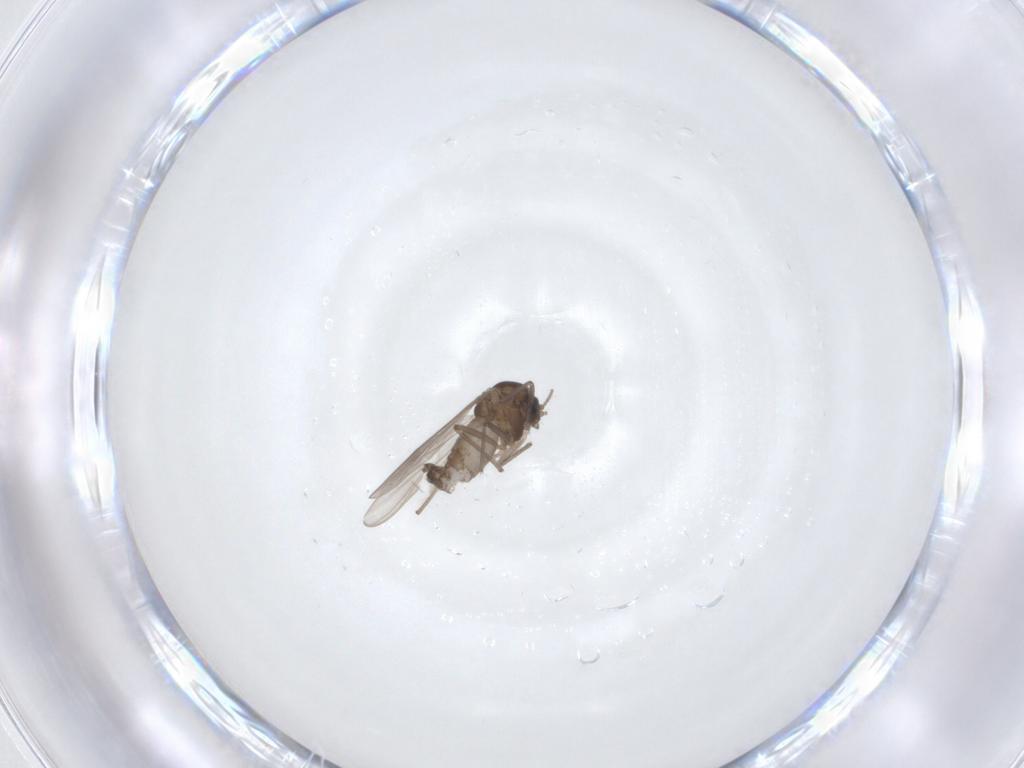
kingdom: Animalia
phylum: Arthropoda
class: Insecta
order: Diptera
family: Chironomidae
